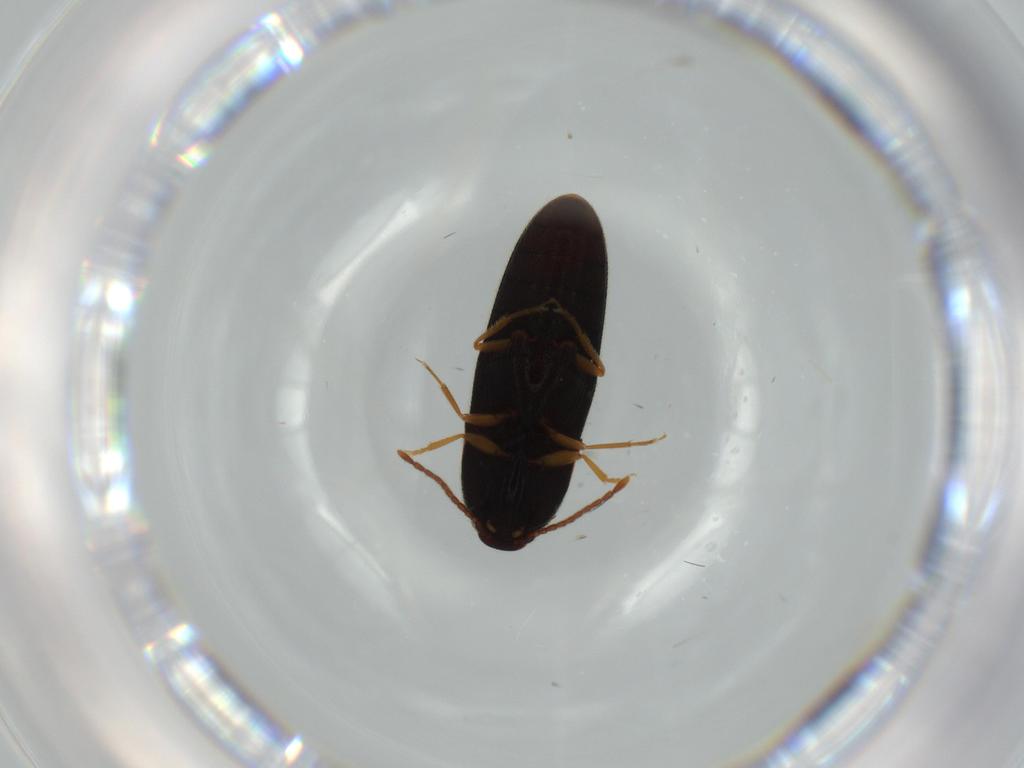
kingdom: Animalia
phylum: Arthropoda
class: Insecta
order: Coleoptera
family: Elateridae
